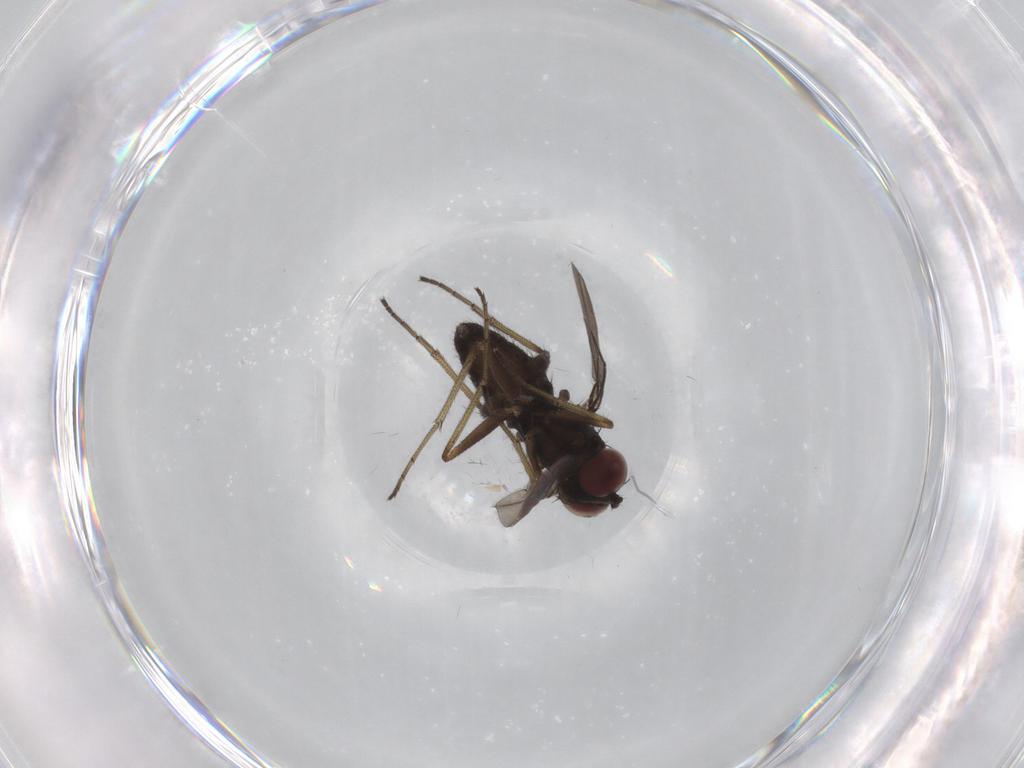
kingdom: Animalia
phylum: Arthropoda
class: Insecta
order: Diptera
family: Dolichopodidae
